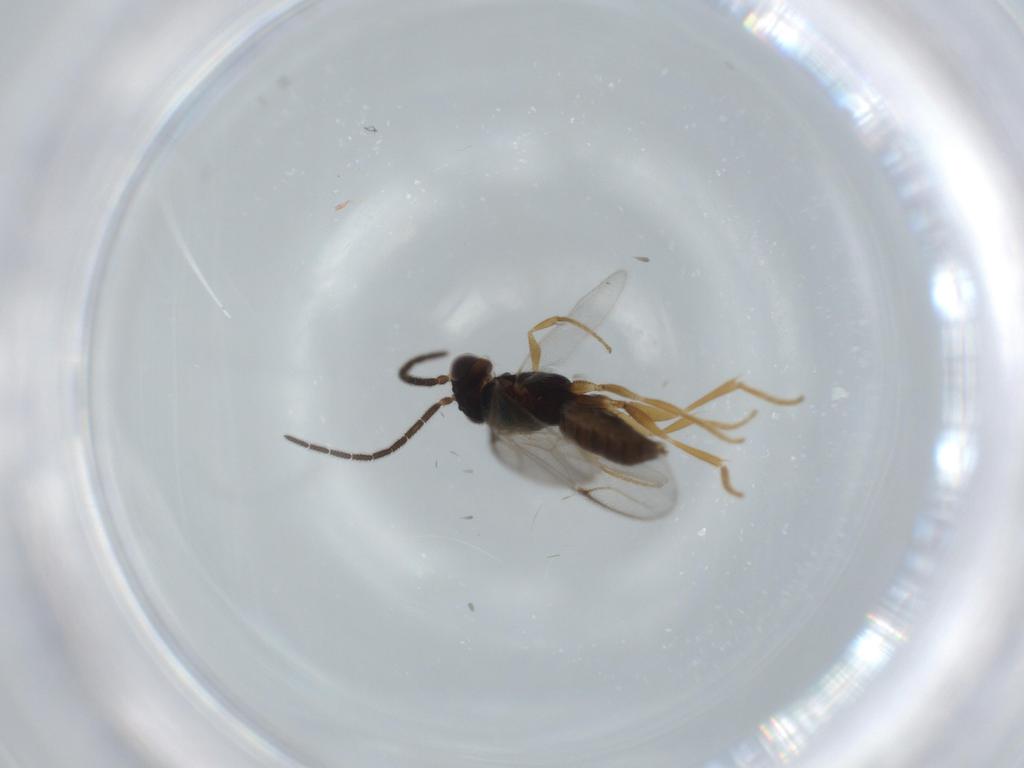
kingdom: Animalia
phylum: Arthropoda
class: Insecta
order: Hymenoptera
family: Dryinidae
